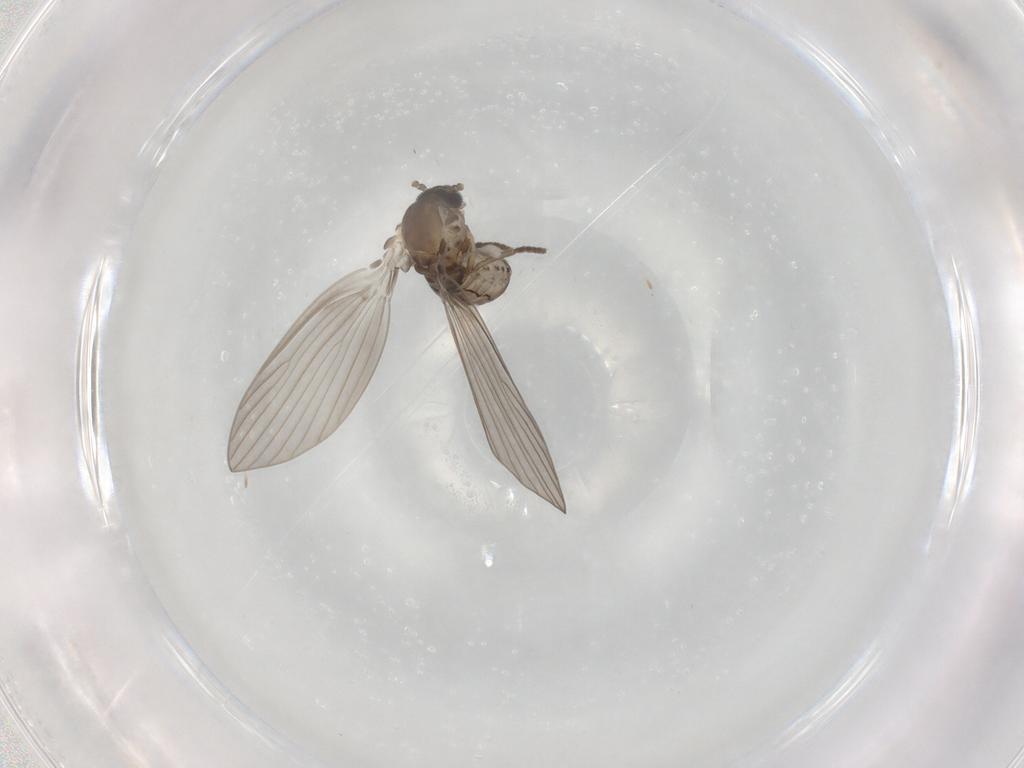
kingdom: Animalia
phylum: Arthropoda
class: Insecta
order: Diptera
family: Psychodidae
